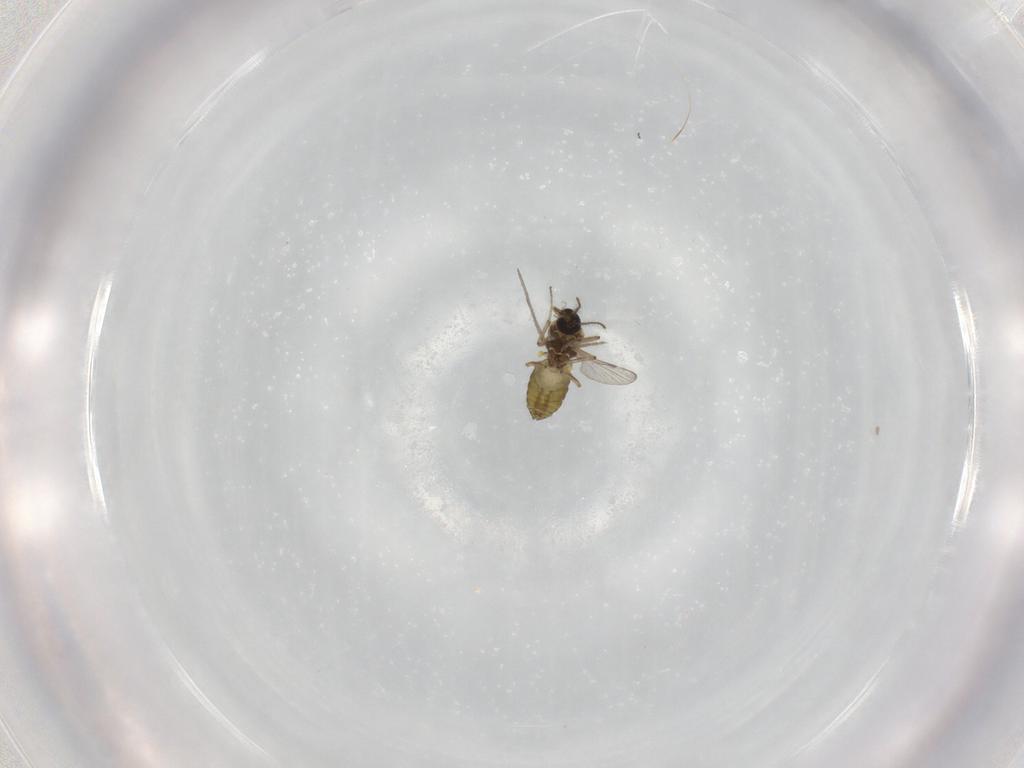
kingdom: Animalia
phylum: Arthropoda
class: Insecta
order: Diptera
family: Ceratopogonidae
